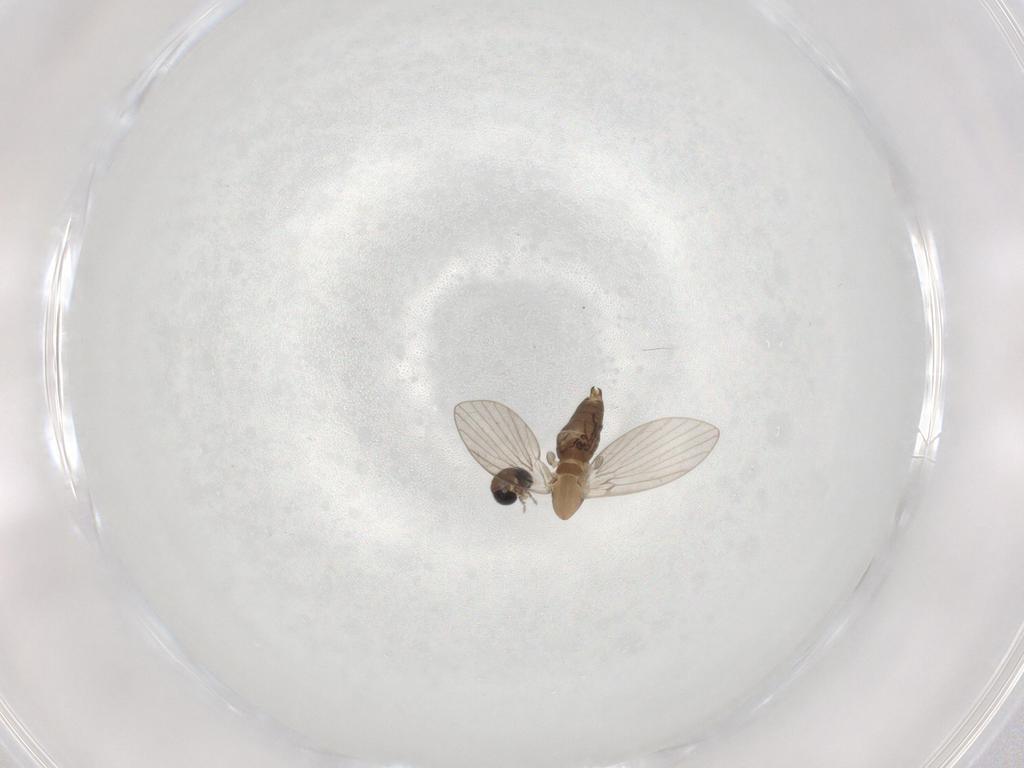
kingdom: Animalia
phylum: Arthropoda
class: Insecta
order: Diptera
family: Psychodidae
